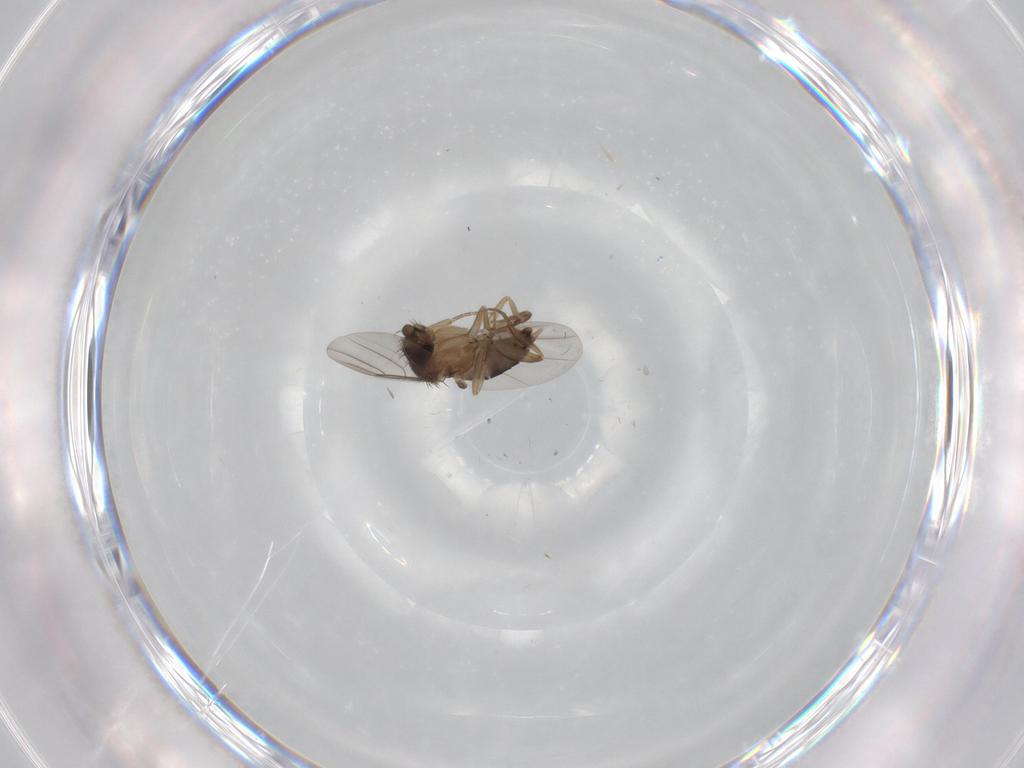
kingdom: Animalia
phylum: Arthropoda
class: Insecta
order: Diptera
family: Phoridae
